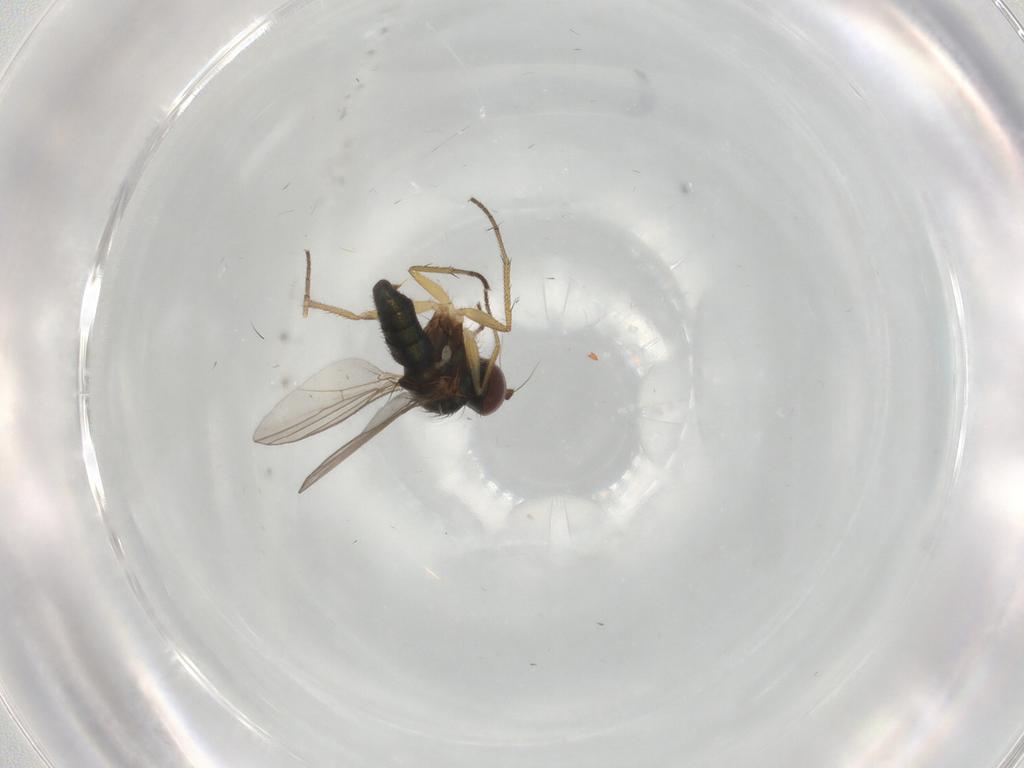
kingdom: Animalia
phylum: Arthropoda
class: Insecta
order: Diptera
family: Dolichopodidae
